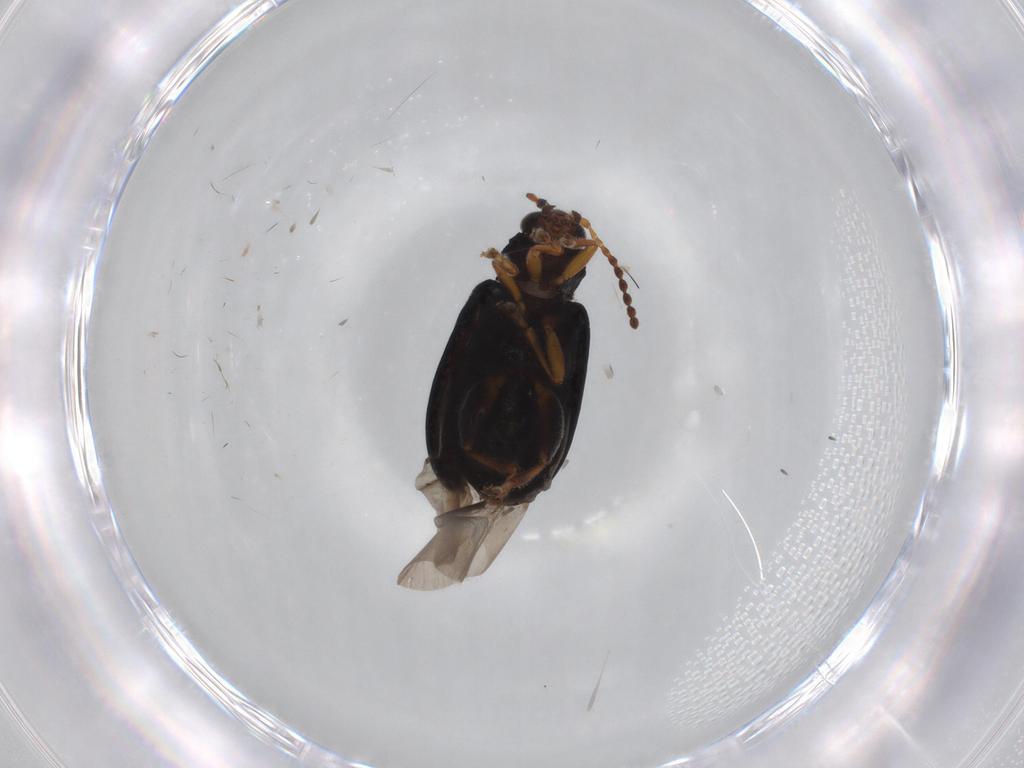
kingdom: Animalia
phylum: Arthropoda
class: Insecta
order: Coleoptera
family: Chrysomelidae
